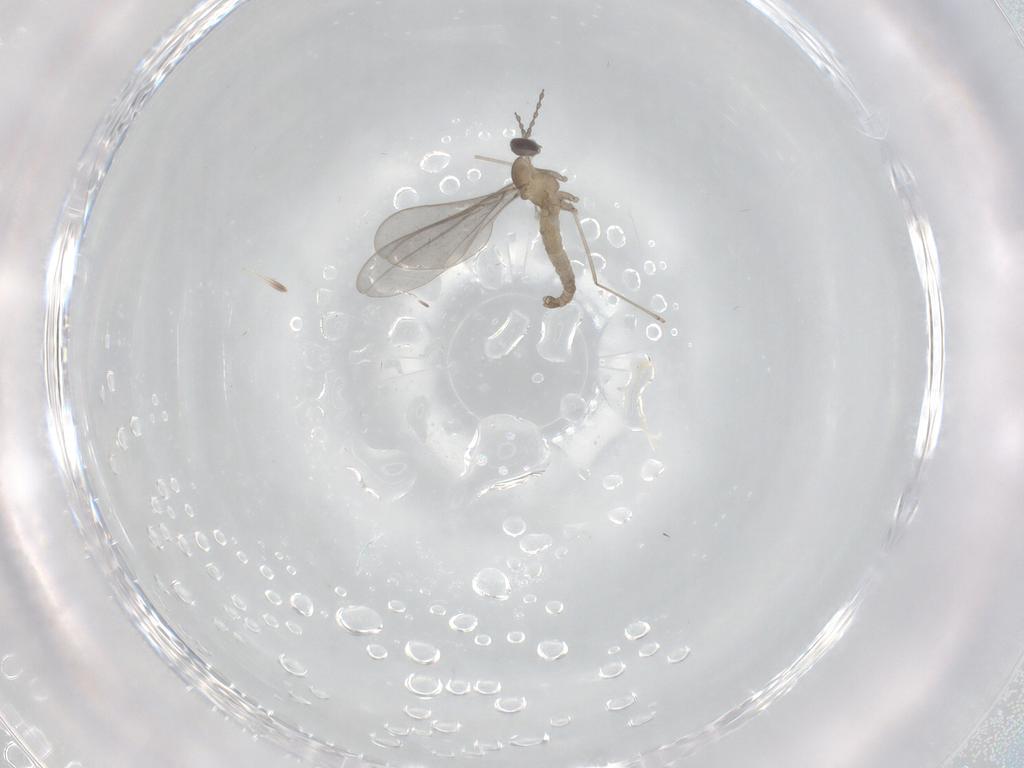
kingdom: Animalia
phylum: Arthropoda
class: Insecta
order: Diptera
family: Cecidomyiidae
